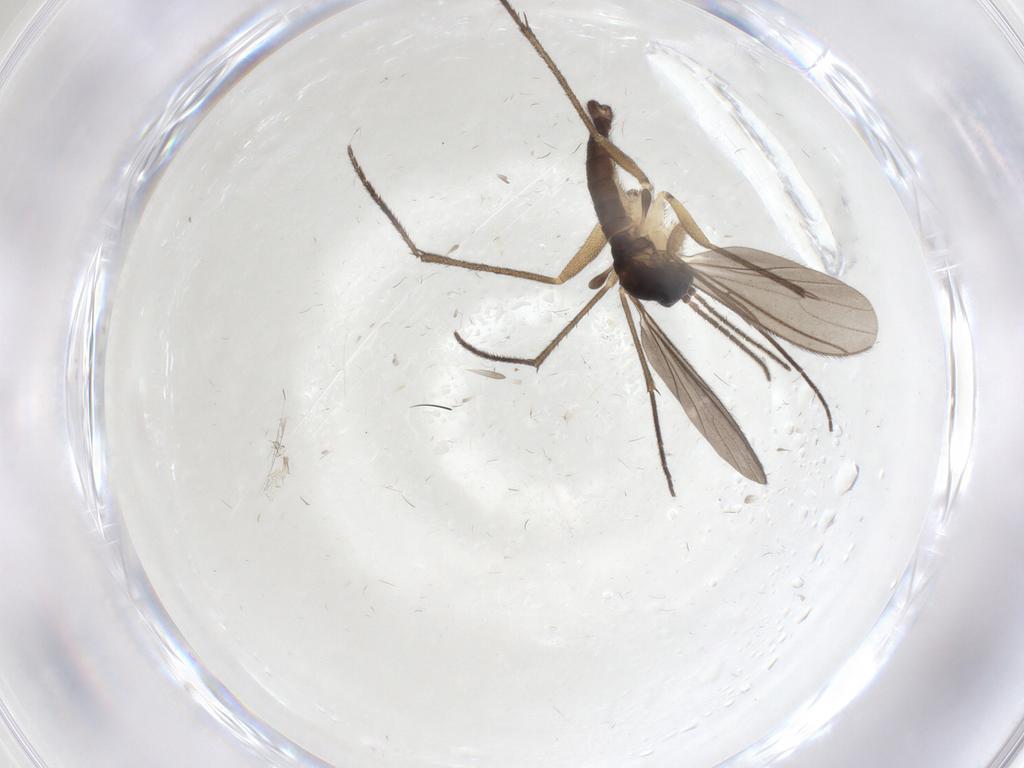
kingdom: Animalia
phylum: Arthropoda
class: Insecta
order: Diptera
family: Sciaridae
